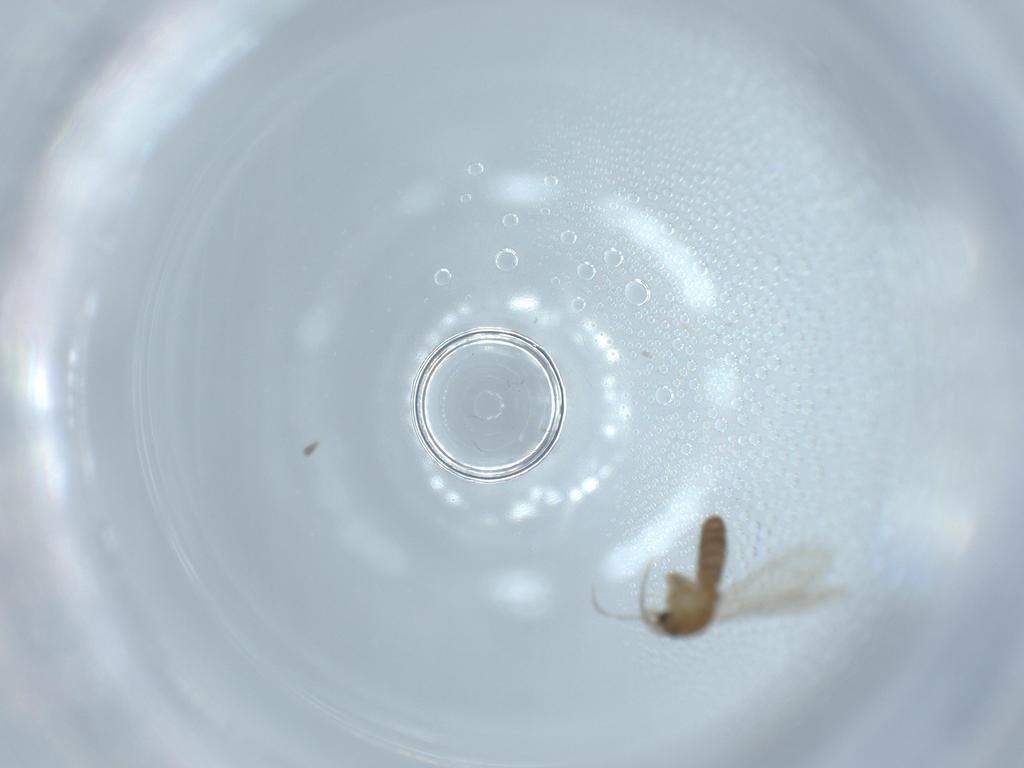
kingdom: Animalia
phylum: Arthropoda
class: Insecta
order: Diptera
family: Psychodidae
